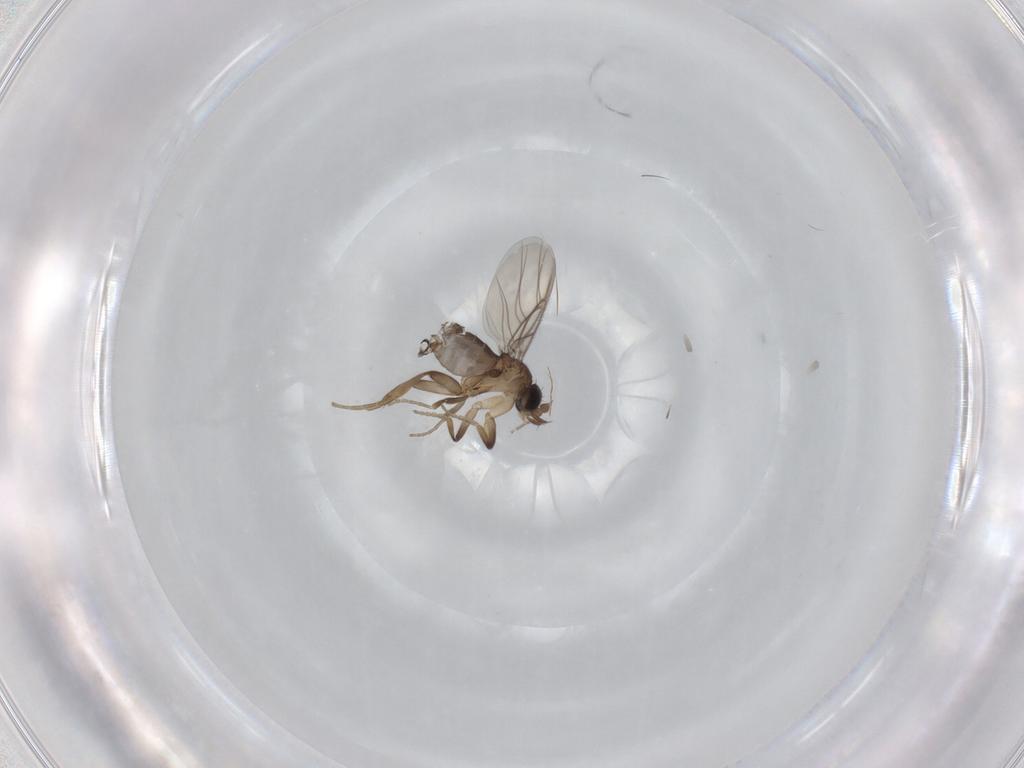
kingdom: Animalia
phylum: Arthropoda
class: Insecta
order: Diptera
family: Phoridae
